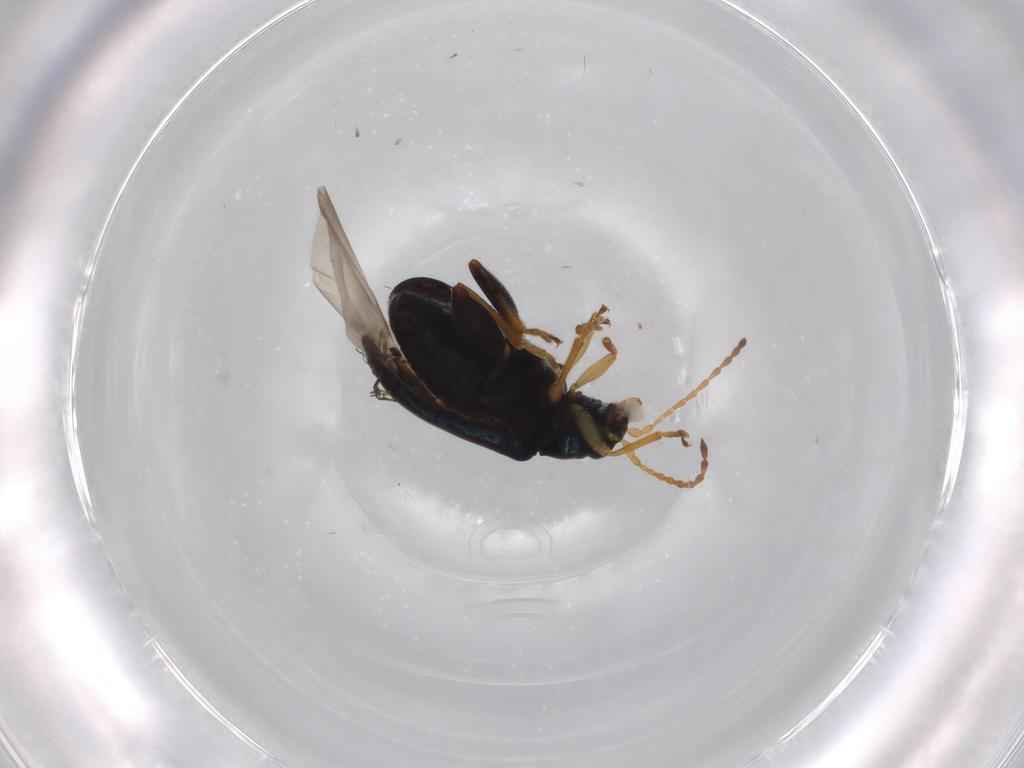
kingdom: Animalia
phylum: Arthropoda
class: Insecta
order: Coleoptera
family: Chrysomelidae
